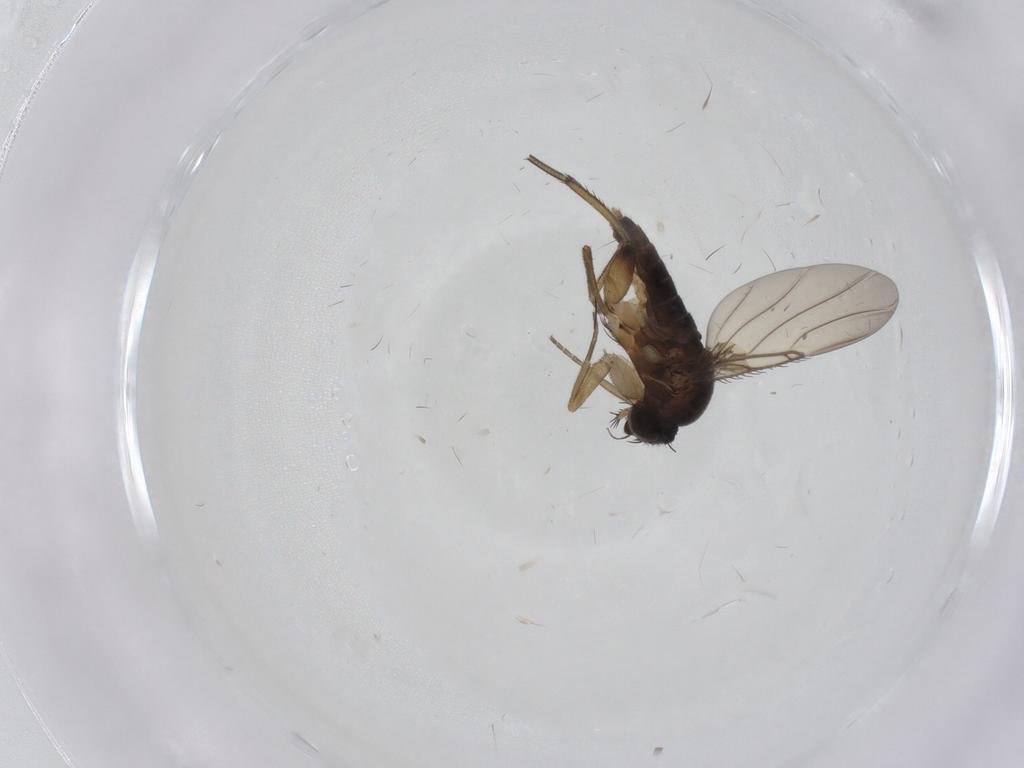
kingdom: Animalia
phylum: Arthropoda
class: Insecta
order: Diptera
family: Phoridae
